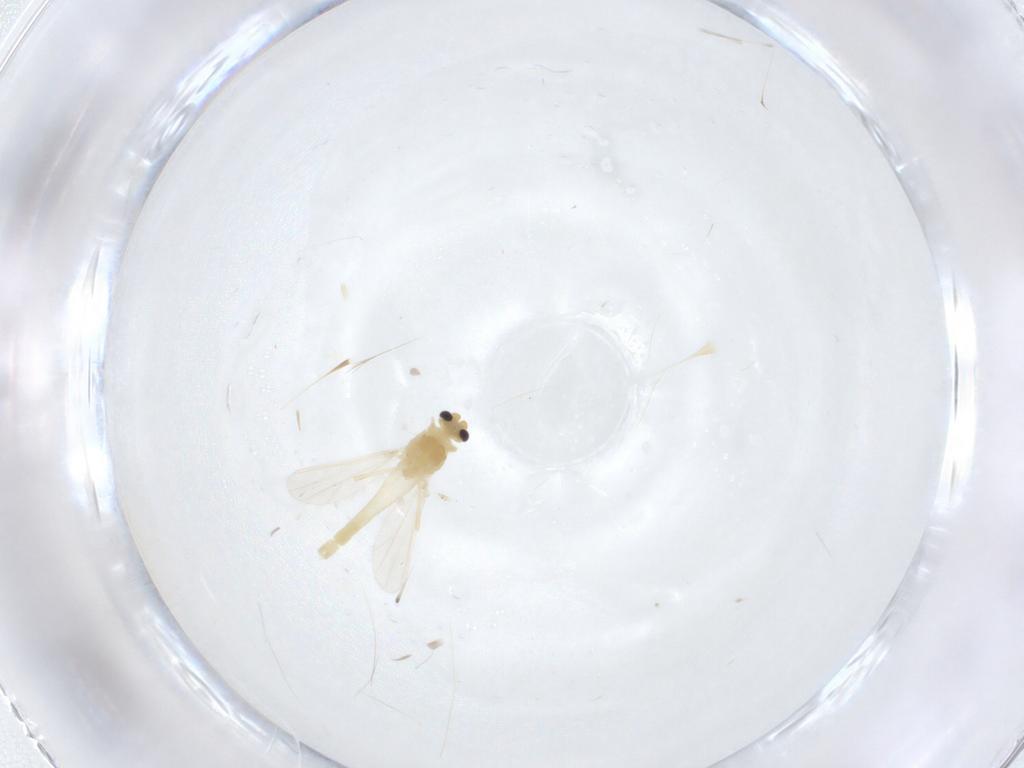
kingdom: Animalia
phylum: Arthropoda
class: Insecta
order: Diptera
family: Chironomidae
